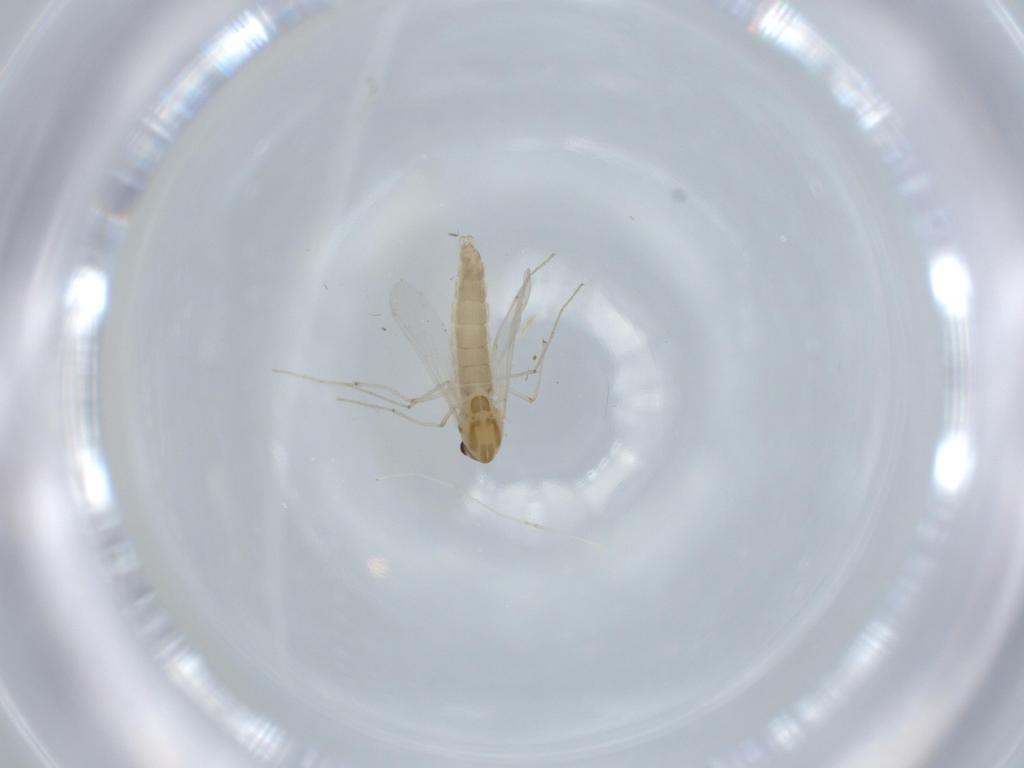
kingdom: Animalia
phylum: Arthropoda
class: Insecta
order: Diptera
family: Chironomidae
